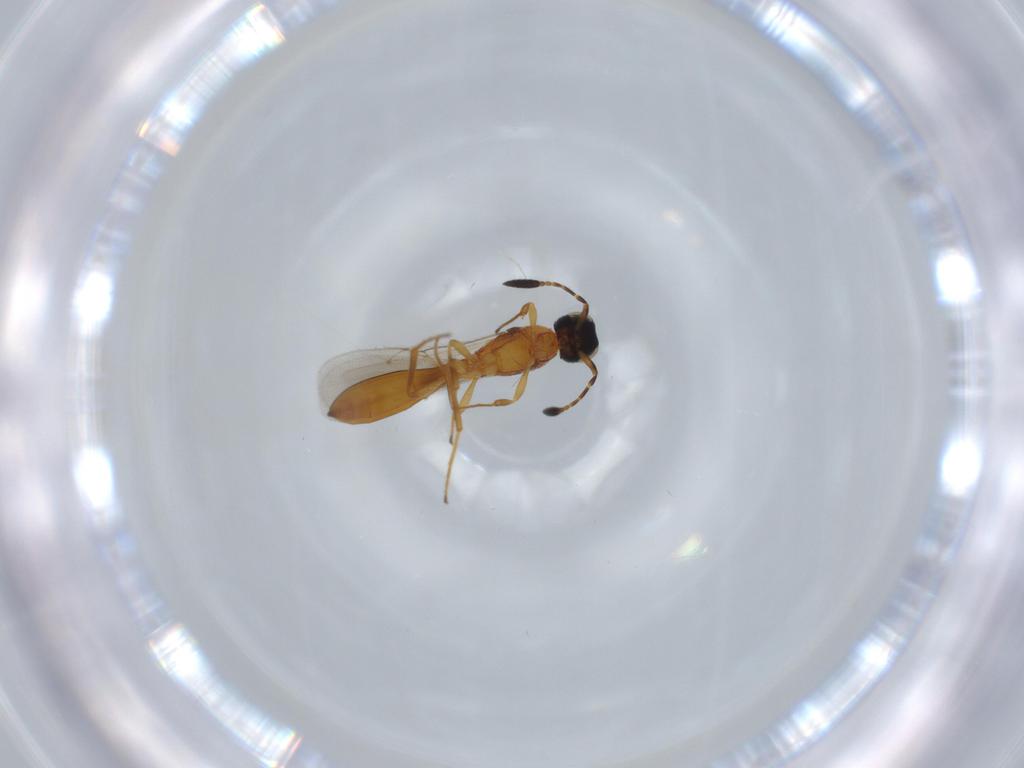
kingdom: Animalia
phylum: Arthropoda
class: Insecta
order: Hymenoptera
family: Scelionidae
